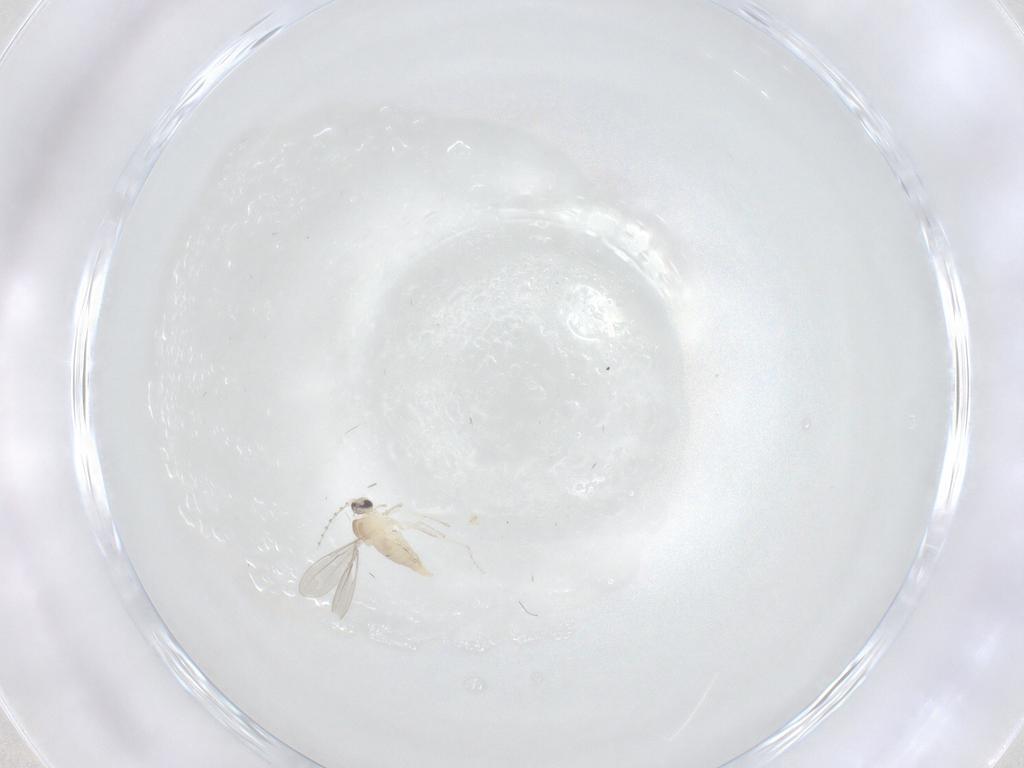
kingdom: Animalia
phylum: Arthropoda
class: Insecta
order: Diptera
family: Cecidomyiidae
